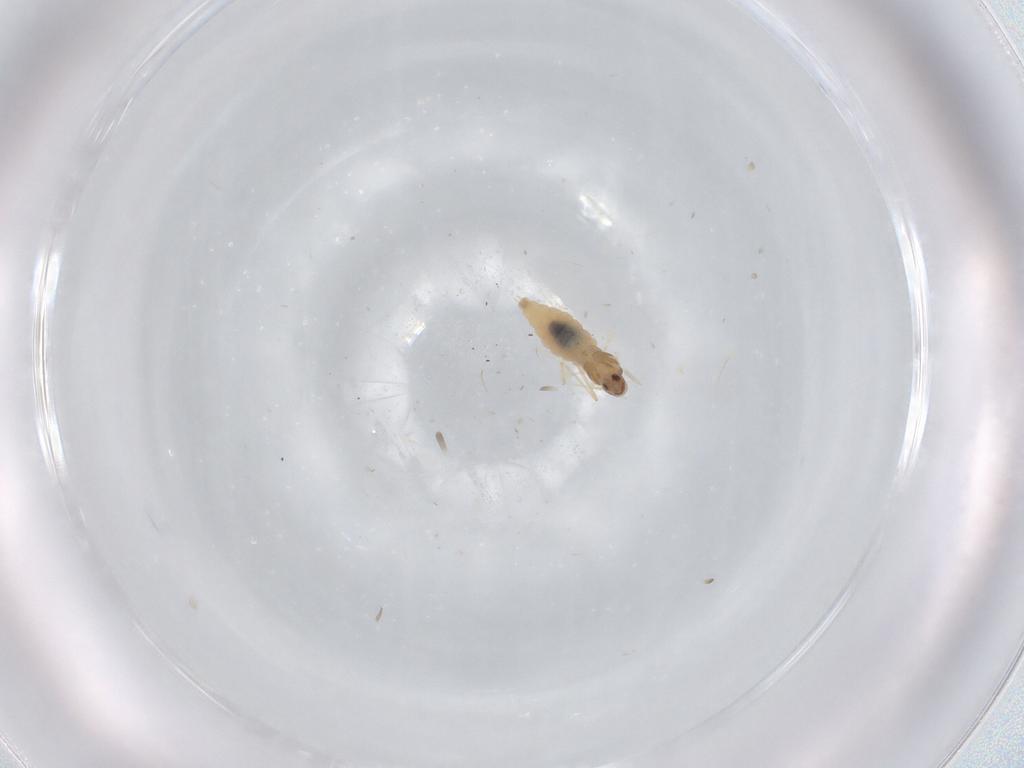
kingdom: Animalia
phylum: Arthropoda
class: Insecta
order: Diptera
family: Cecidomyiidae
